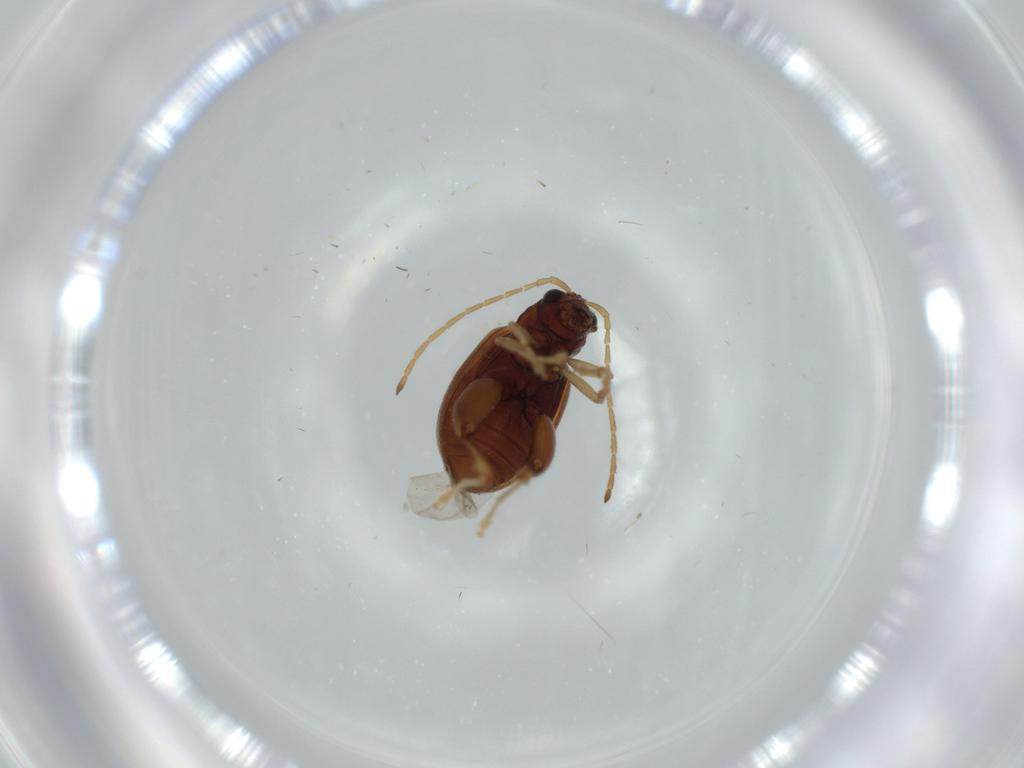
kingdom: Animalia
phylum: Arthropoda
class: Insecta
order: Coleoptera
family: Chrysomelidae
